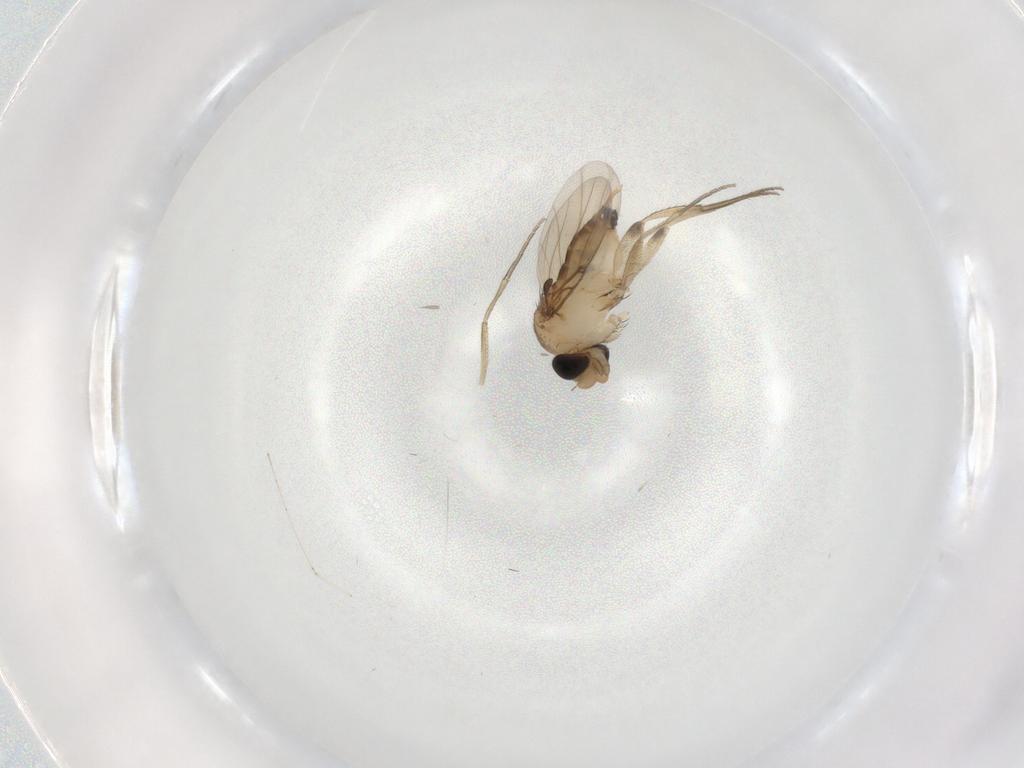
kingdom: Animalia
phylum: Arthropoda
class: Insecta
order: Diptera
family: Phoridae
